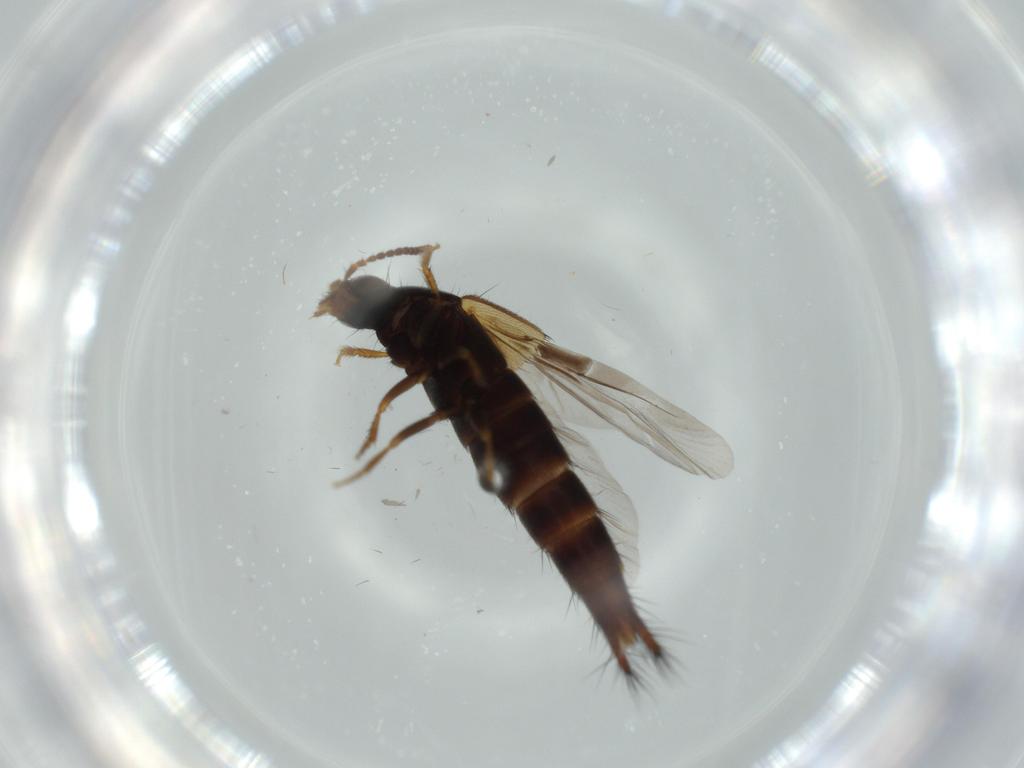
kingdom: Animalia
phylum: Arthropoda
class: Insecta
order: Coleoptera
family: Staphylinidae
